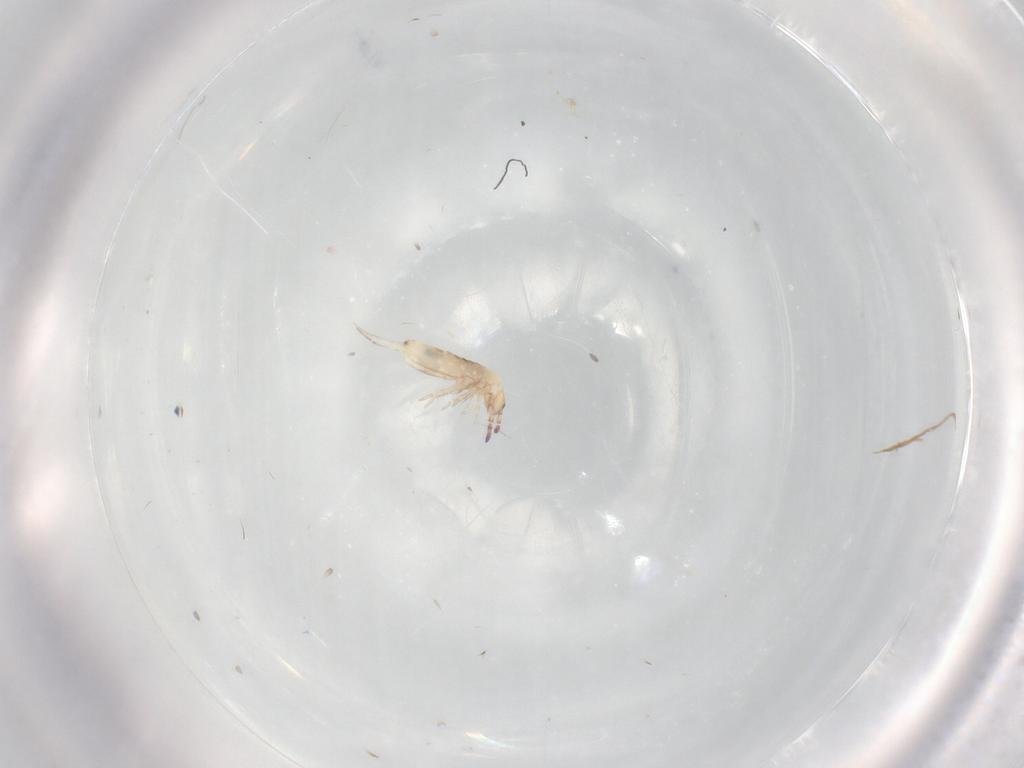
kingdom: Animalia
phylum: Arthropoda
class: Collembola
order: Entomobryomorpha
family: Entomobryidae
